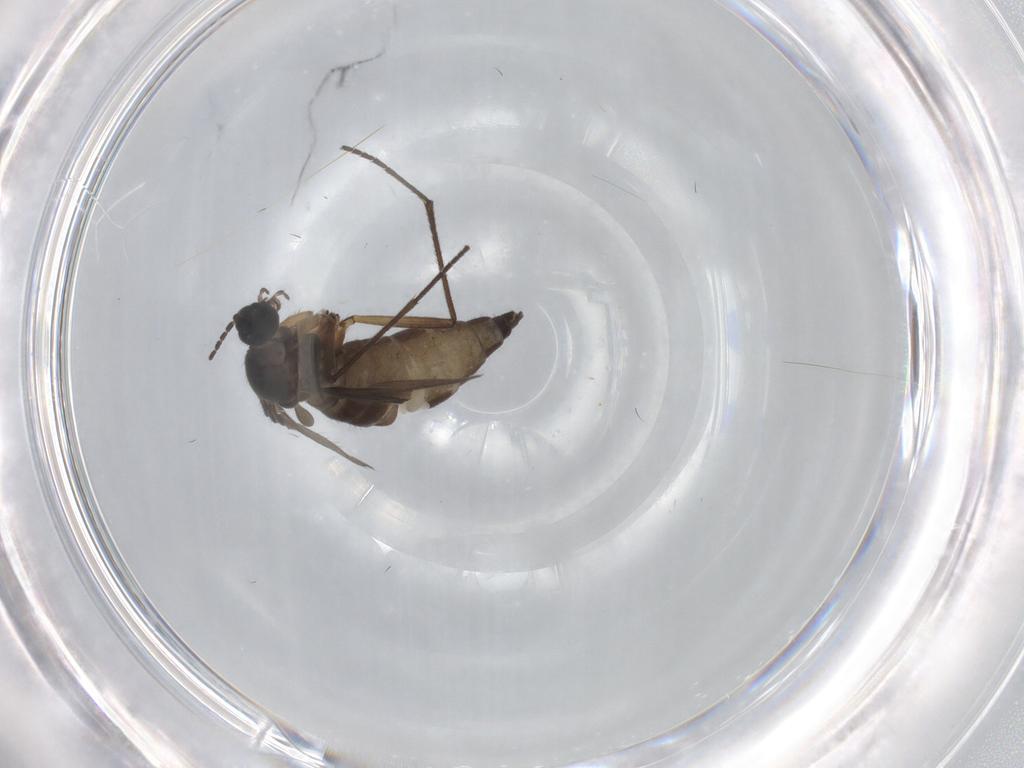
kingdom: Animalia
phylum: Arthropoda
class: Insecta
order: Diptera
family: Sciaridae
